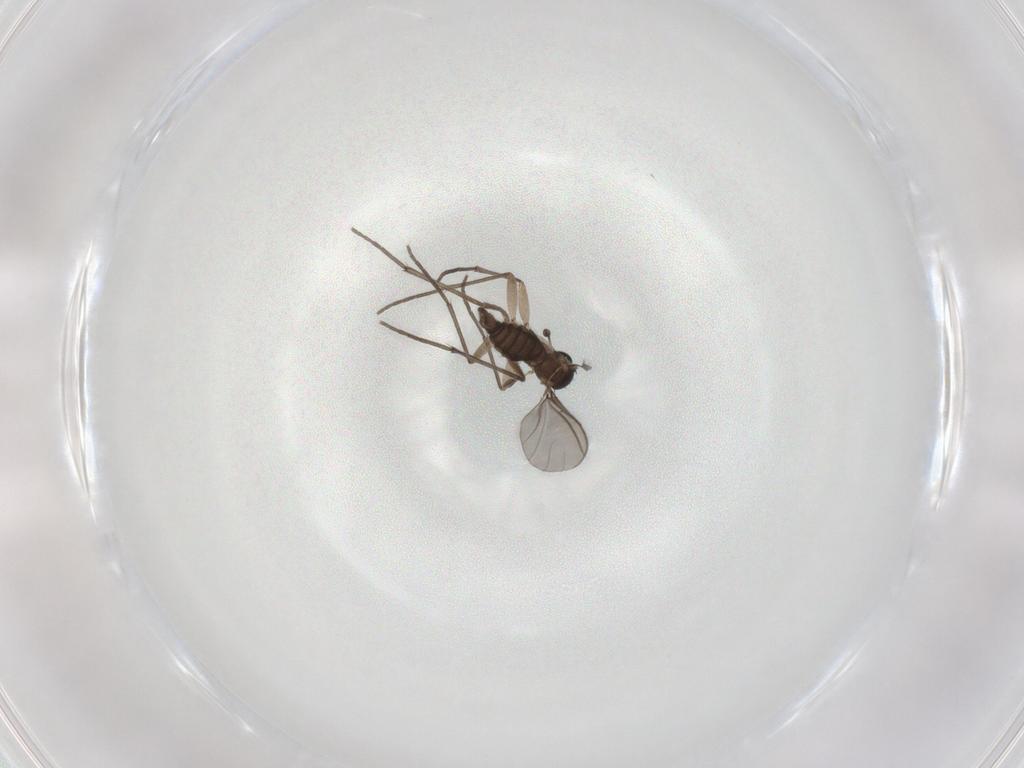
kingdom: Animalia
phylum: Arthropoda
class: Insecta
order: Diptera
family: Sciaridae
